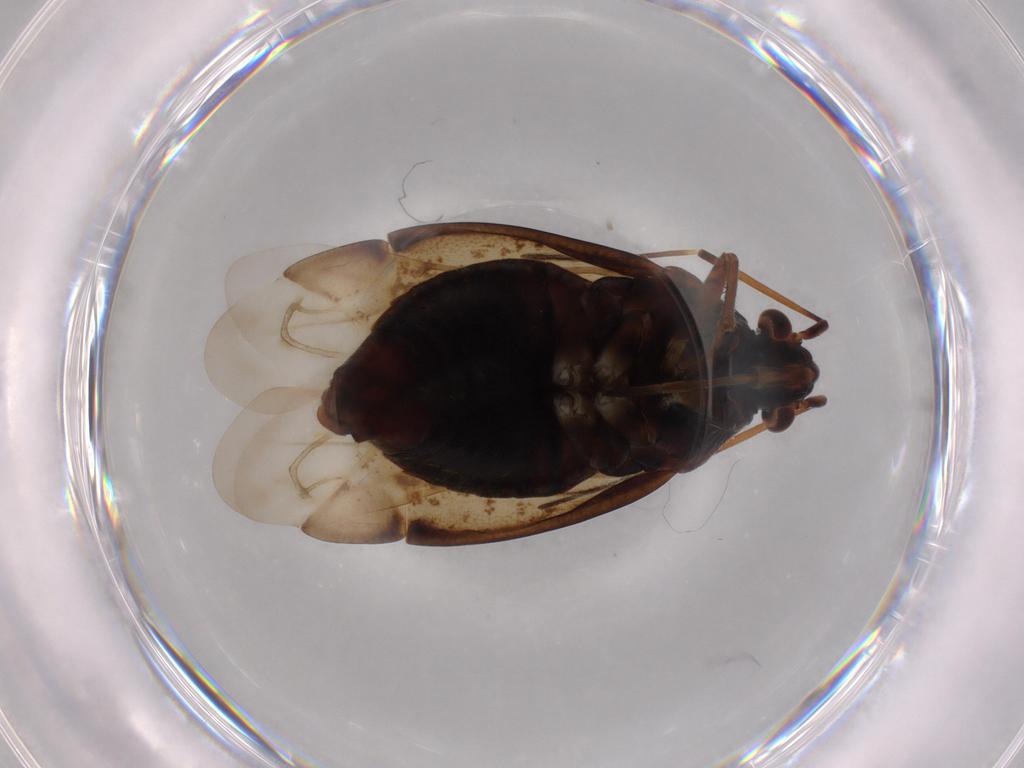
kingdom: Animalia
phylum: Arthropoda
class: Insecta
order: Hemiptera
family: Miridae
